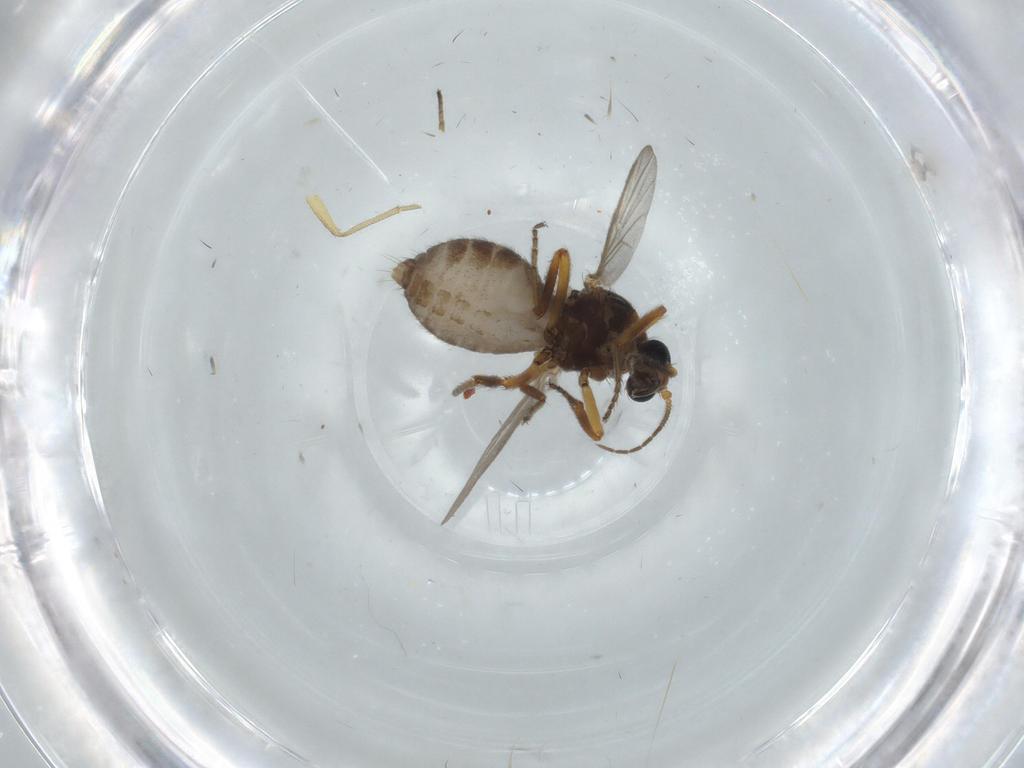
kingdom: Animalia
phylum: Arthropoda
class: Insecta
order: Diptera
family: Ceratopogonidae
